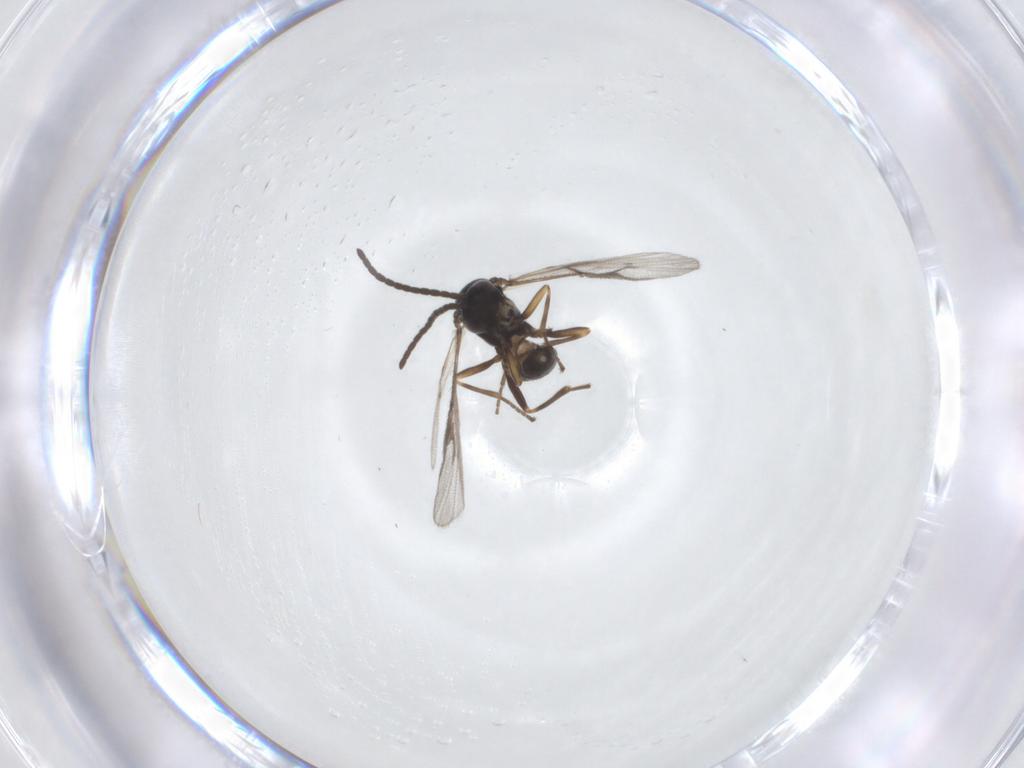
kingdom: Animalia
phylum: Arthropoda
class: Insecta
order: Hymenoptera
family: Braconidae
